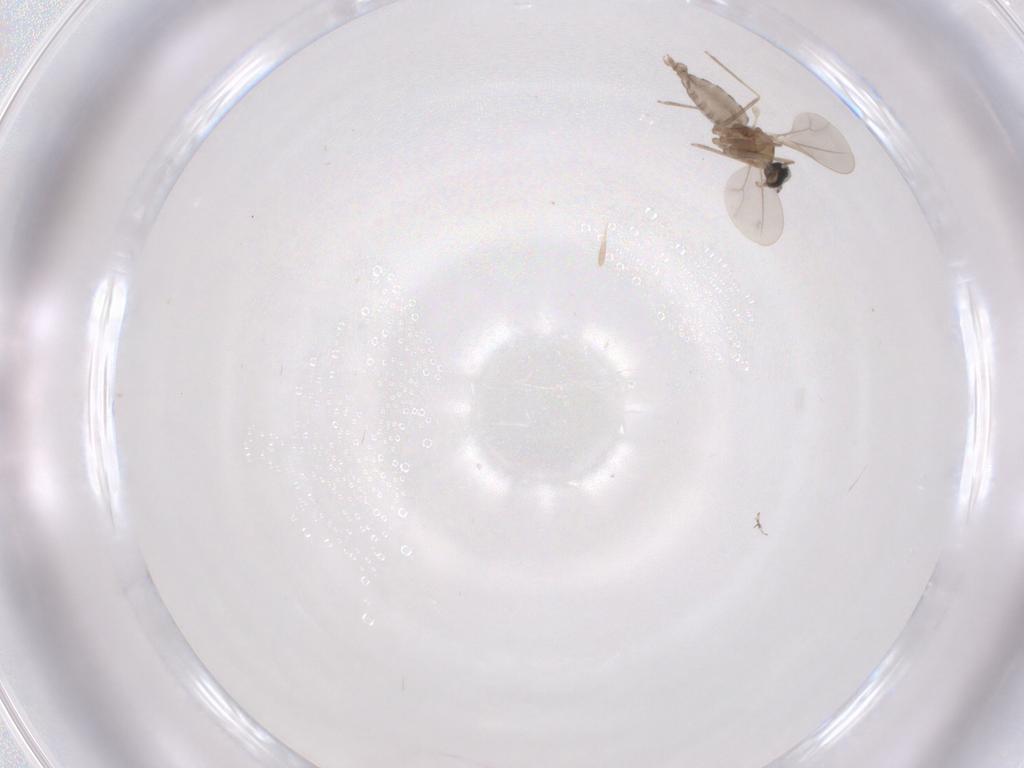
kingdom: Animalia
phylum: Arthropoda
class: Insecta
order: Diptera
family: Cecidomyiidae
